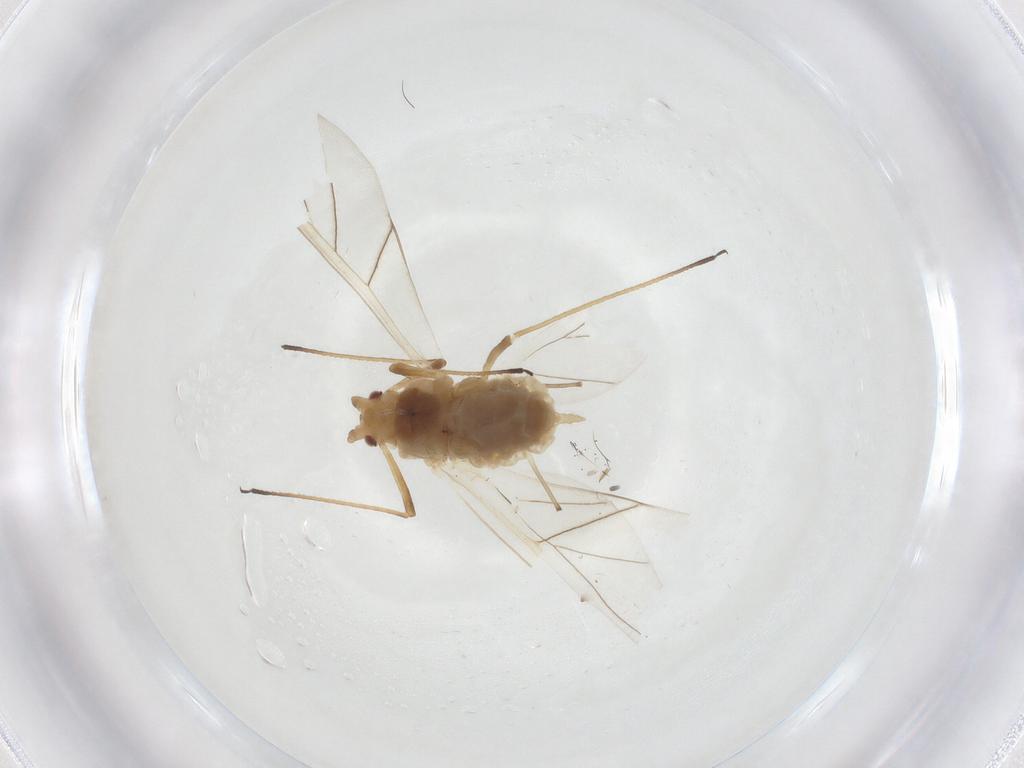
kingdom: Animalia
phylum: Arthropoda
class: Insecta
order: Hemiptera
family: Aphididae
